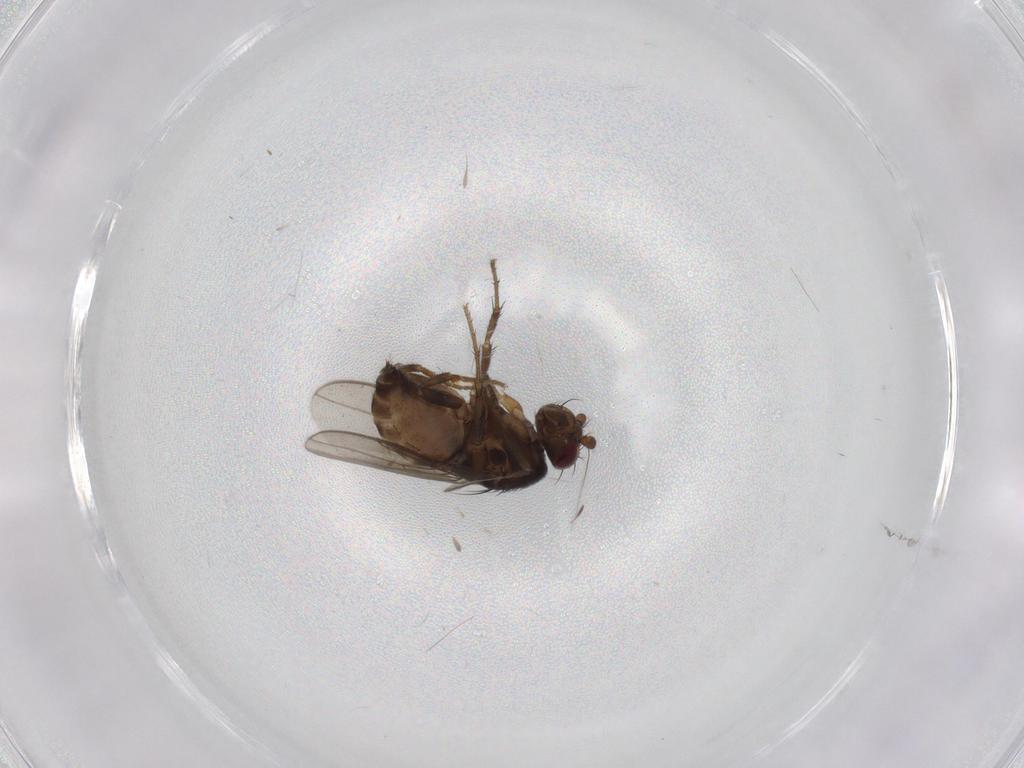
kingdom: Animalia
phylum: Arthropoda
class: Insecta
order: Diptera
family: Sphaeroceridae
